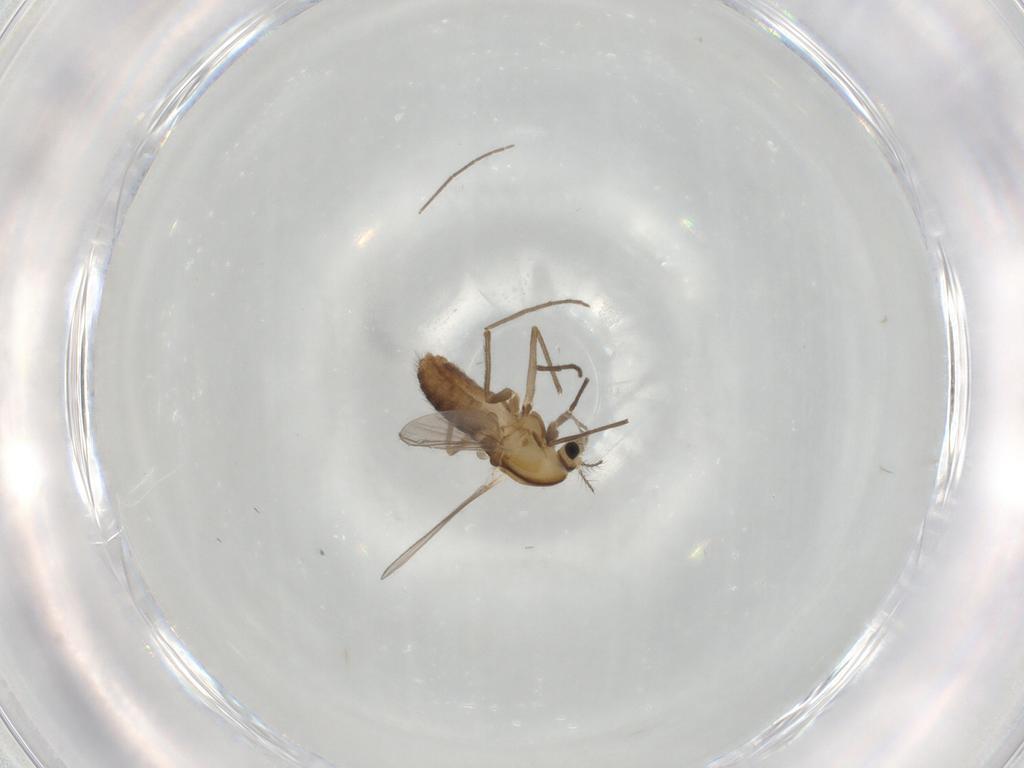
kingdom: Animalia
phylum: Arthropoda
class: Insecta
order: Diptera
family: Chironomidae
